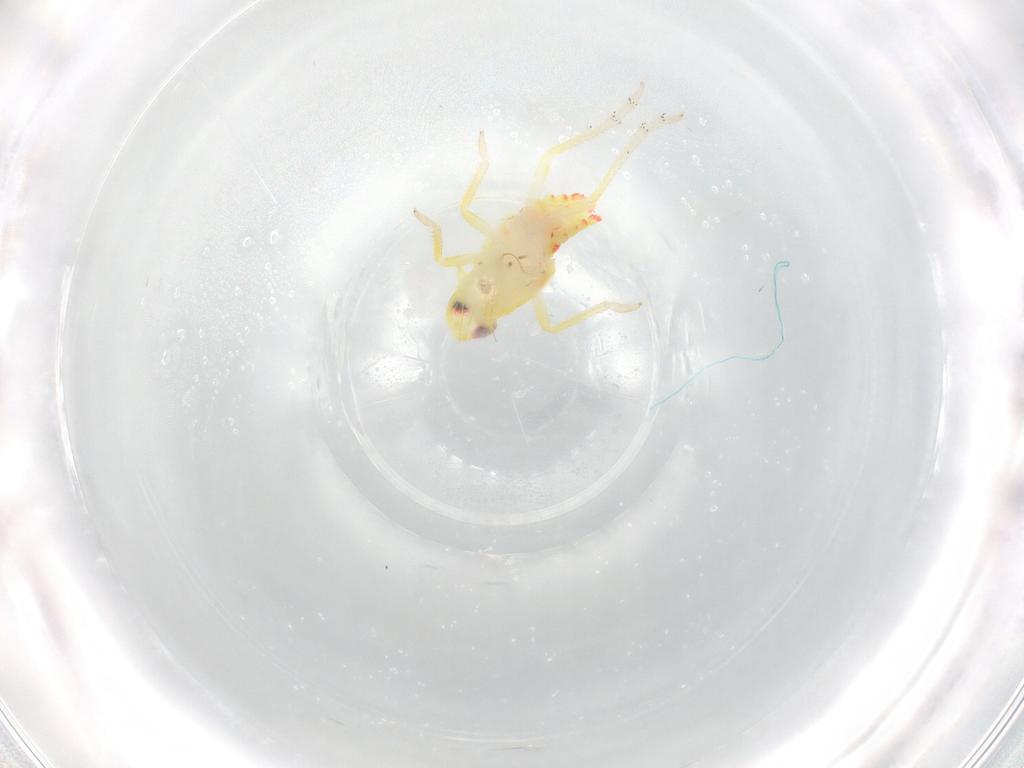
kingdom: Animalia
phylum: Arthropoda
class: Insecta
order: Hemiptera
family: Tropiduchidae
